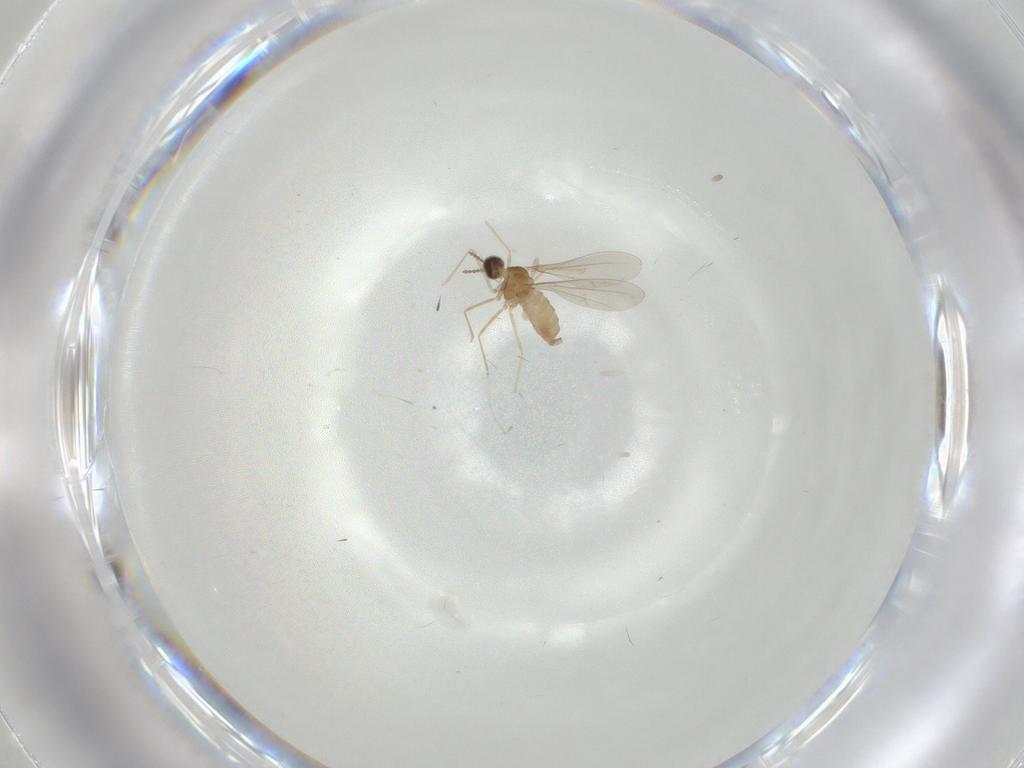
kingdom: Animalia
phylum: Arthropoda
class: Insecta
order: Diptera
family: Cecidomyiidae
